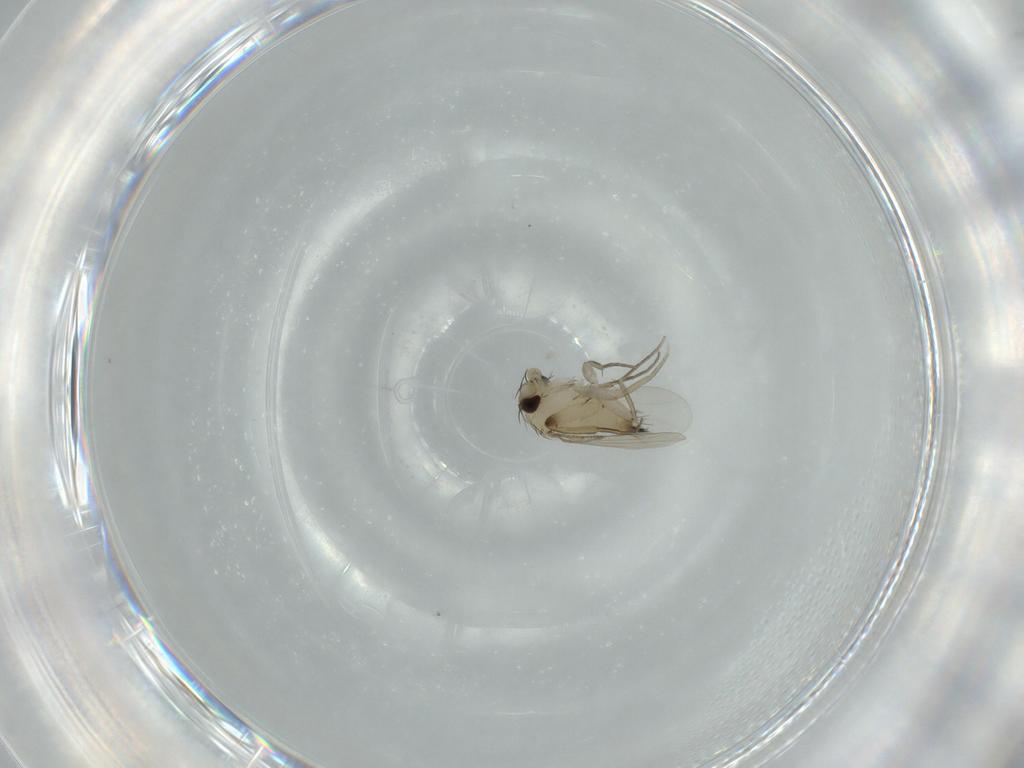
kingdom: Animalia
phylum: Arthropoda
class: Insecta
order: Diptera
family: Phoridae
